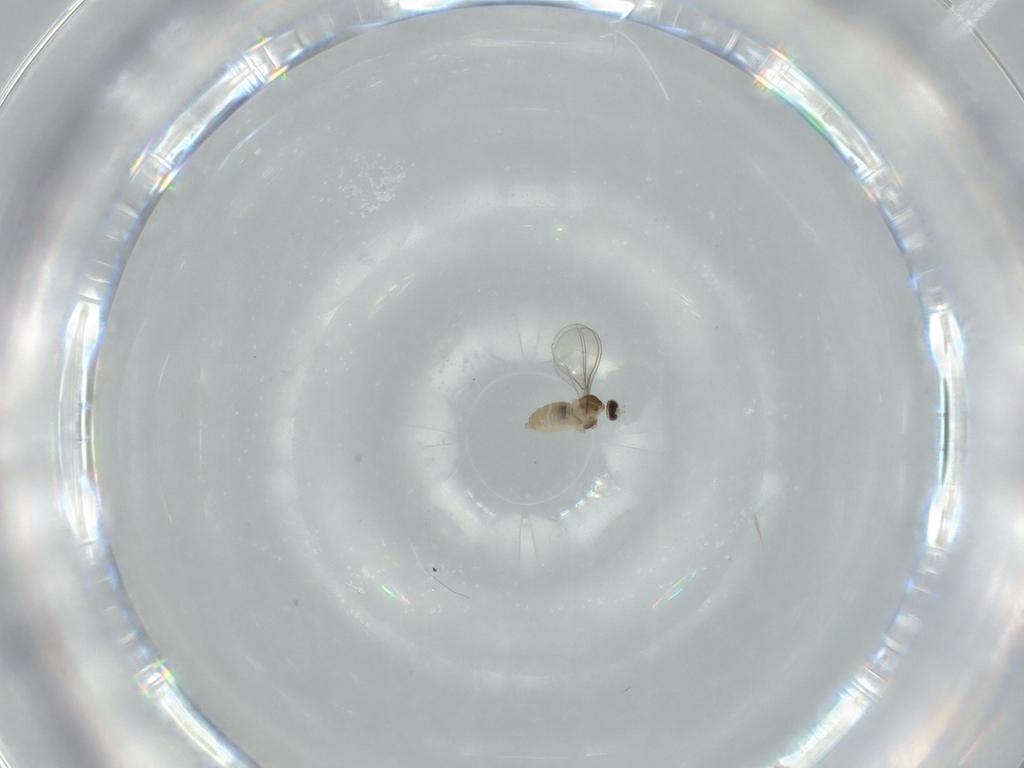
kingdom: Animalia
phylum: Arthropoda
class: Insecta
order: Diptera
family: Cecidomyiidae
